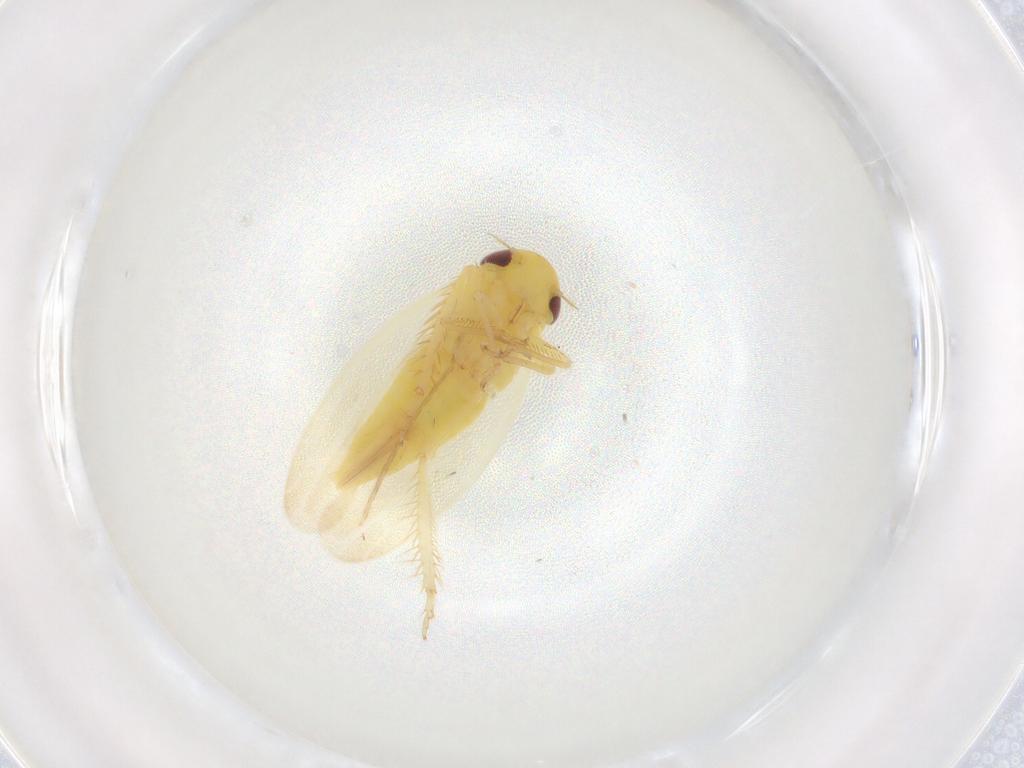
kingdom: Animalia
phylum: Arthropoda
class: Insecta
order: Hemiptera
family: Cicadellidae
